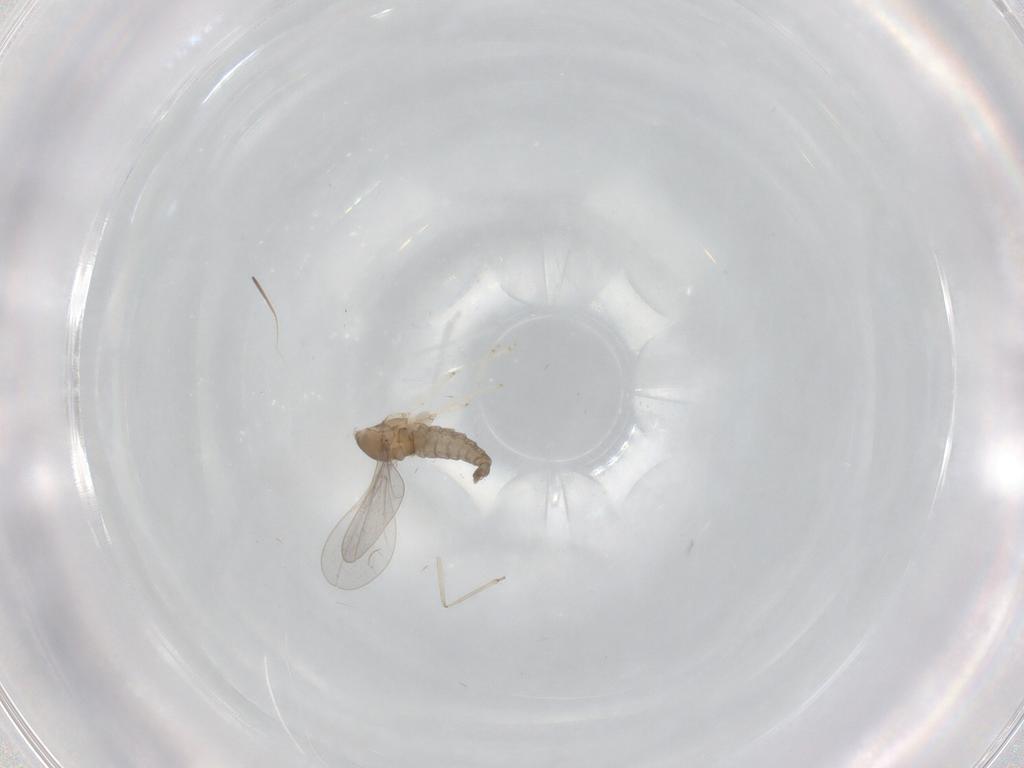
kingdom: Animalia
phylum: Arthropoda
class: Insecta
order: Diptera
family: Cecidomyiidae
